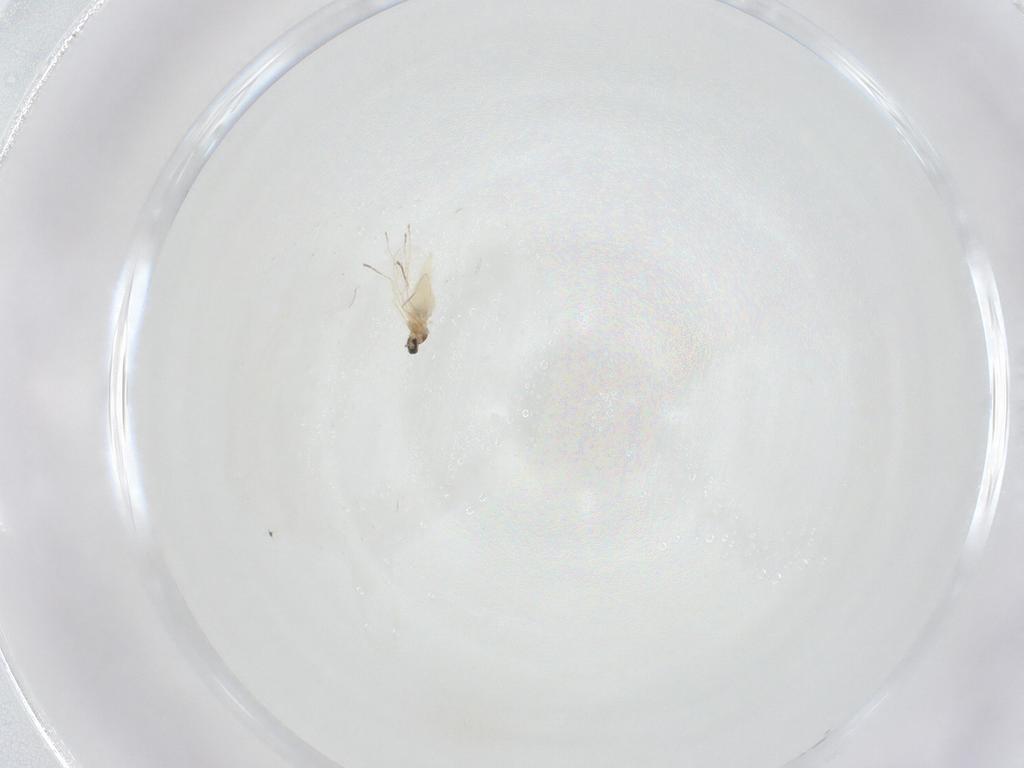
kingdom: Animalia
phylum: Arthropoda
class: Insecta
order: Diptera
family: Cecidomyiidae
